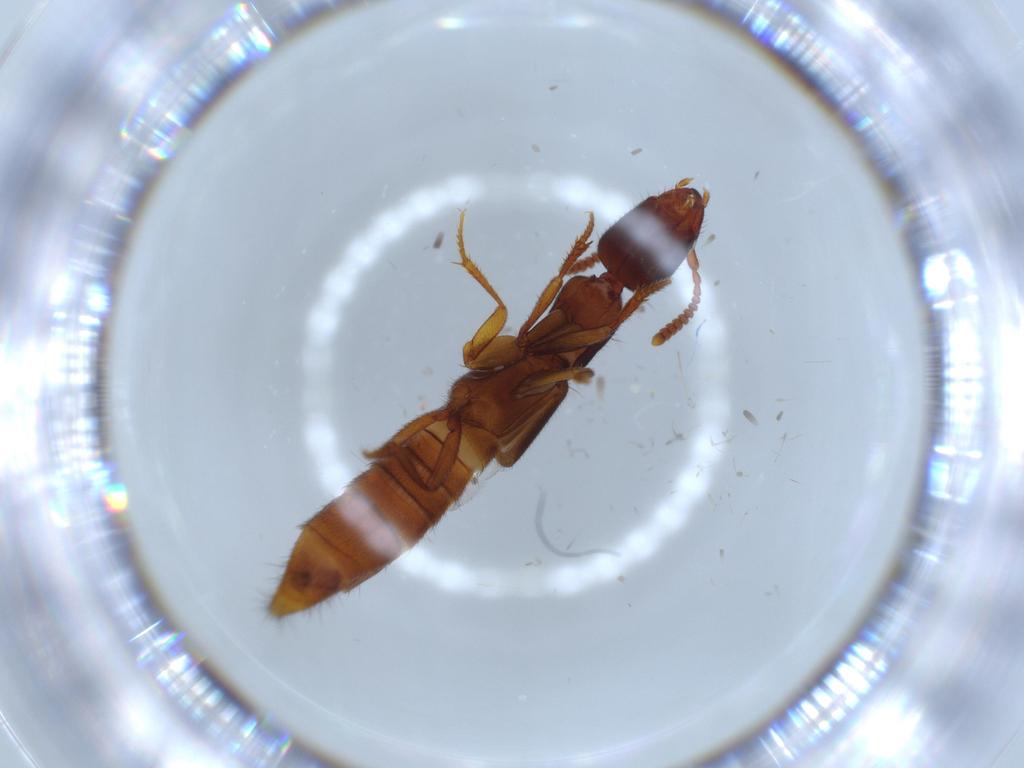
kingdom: Animalia
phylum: Arthropoda
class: Insecta
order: Coleoptera
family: Staphylinidae
